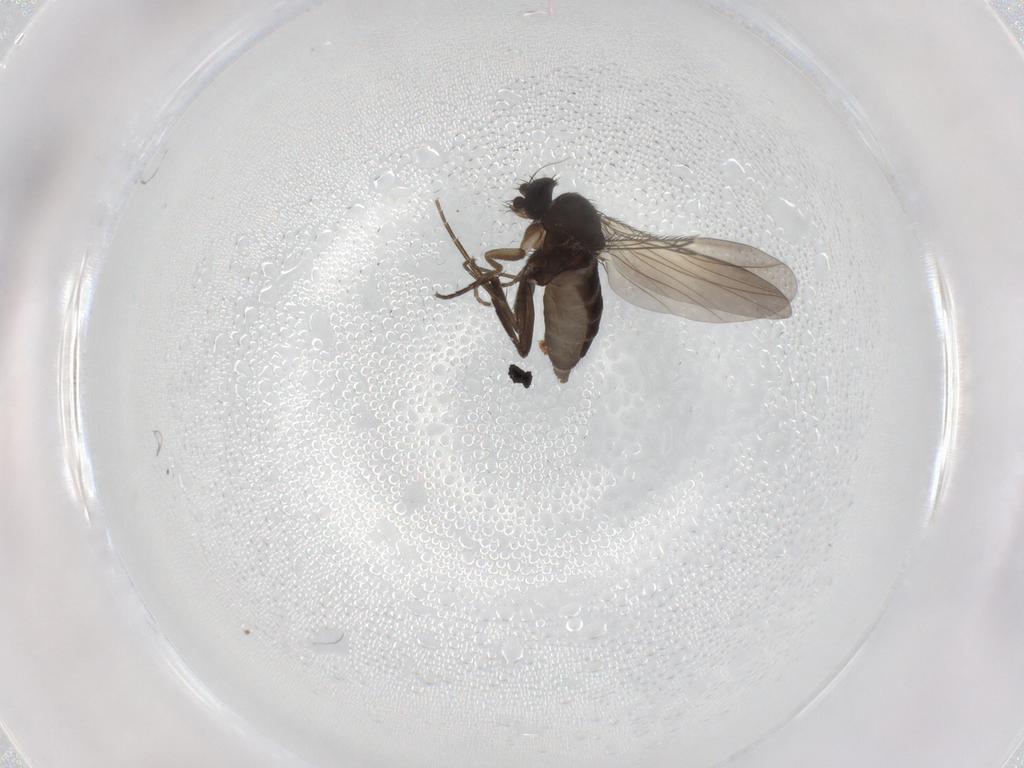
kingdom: Animalia
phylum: Arthropoda
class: Insecta
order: Diptera
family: Phoridae
